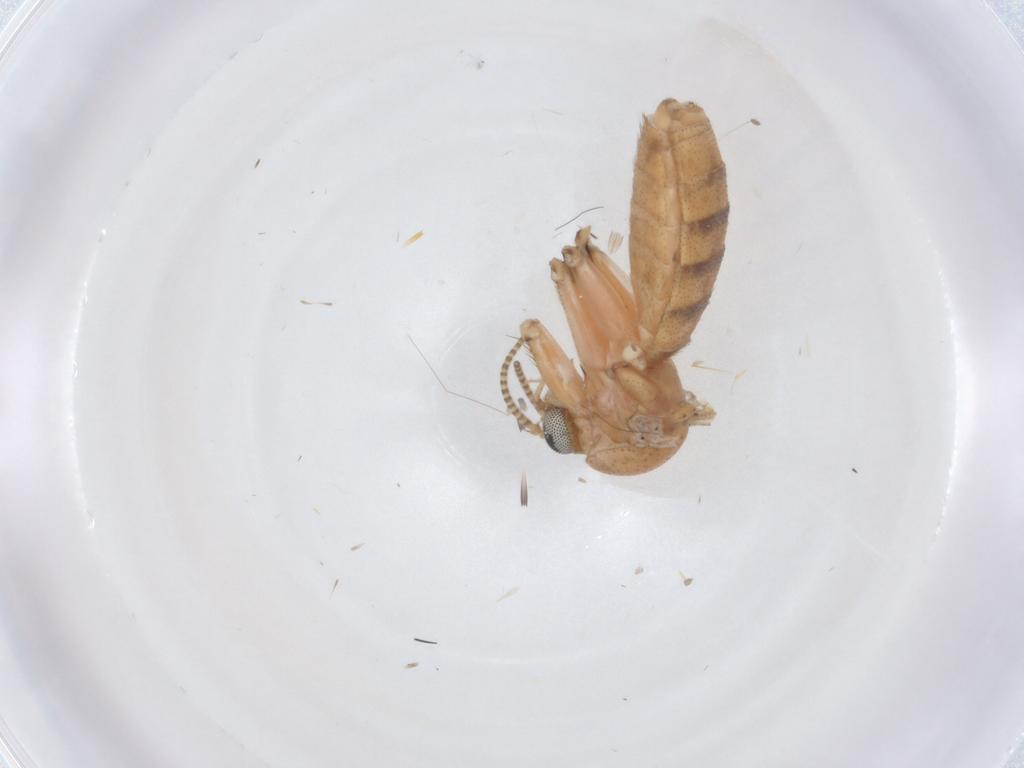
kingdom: Animalia
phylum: Arthropoda
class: Insecta
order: Diptera
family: Mycetophilidae
